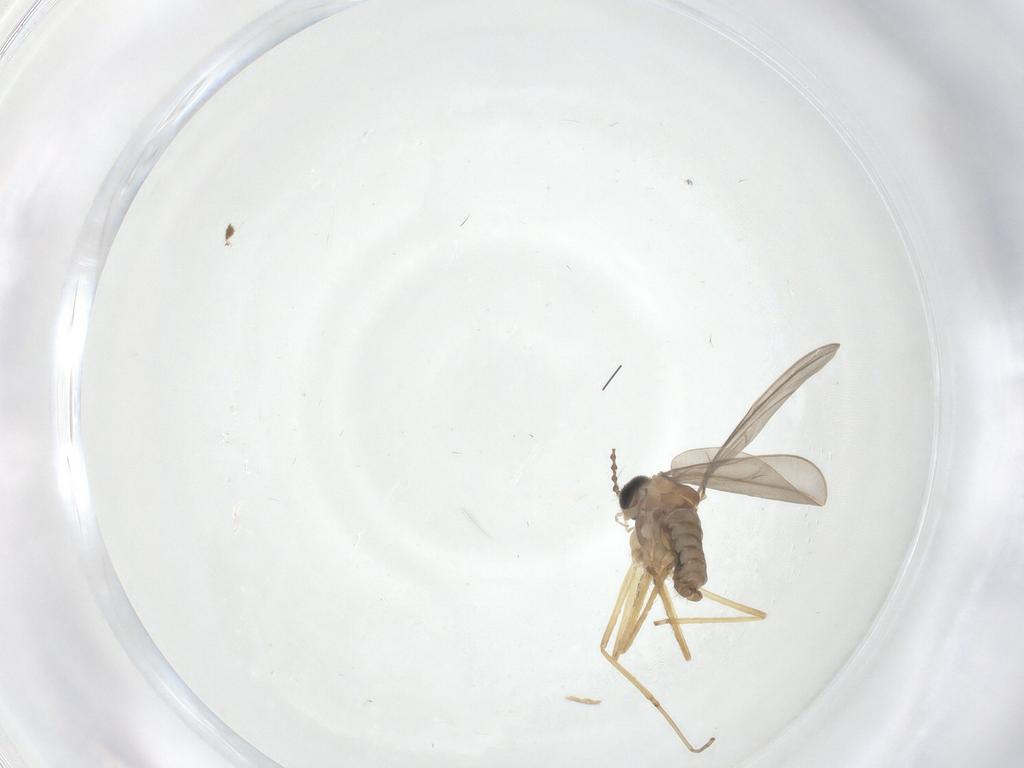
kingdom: Animalia
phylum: Arthropoda
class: Insecta
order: Diptera
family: Cecidomyiidae
